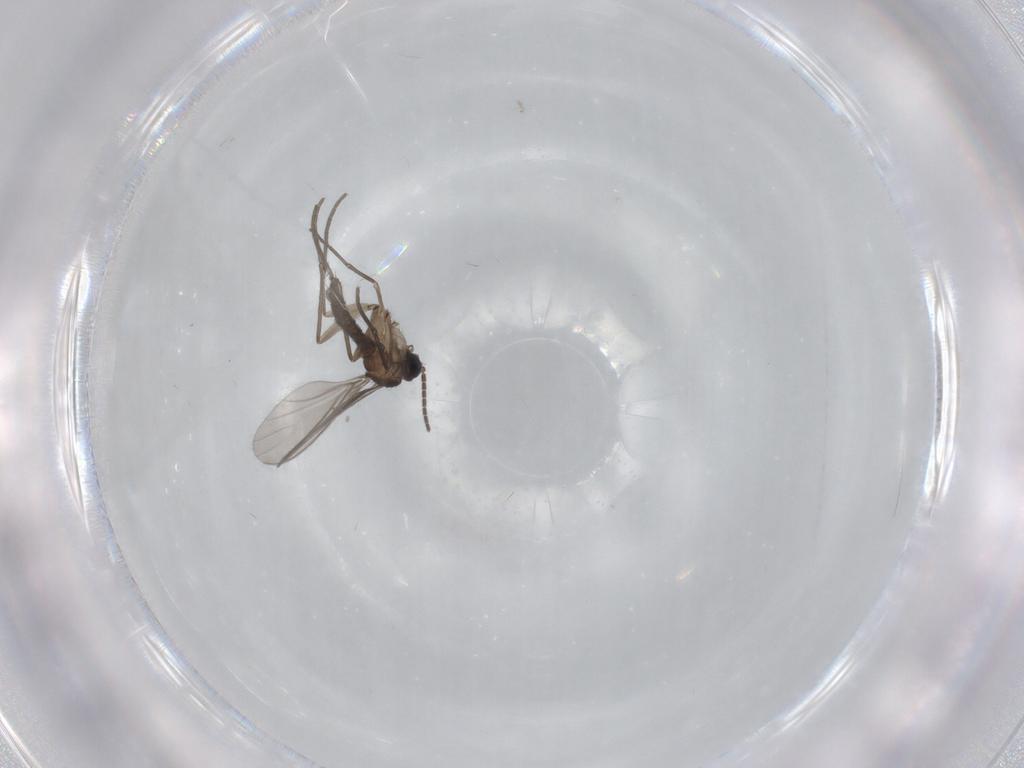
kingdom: Animalia
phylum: Arthropoda
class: Insecta
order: Diptera
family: Sciaridae
